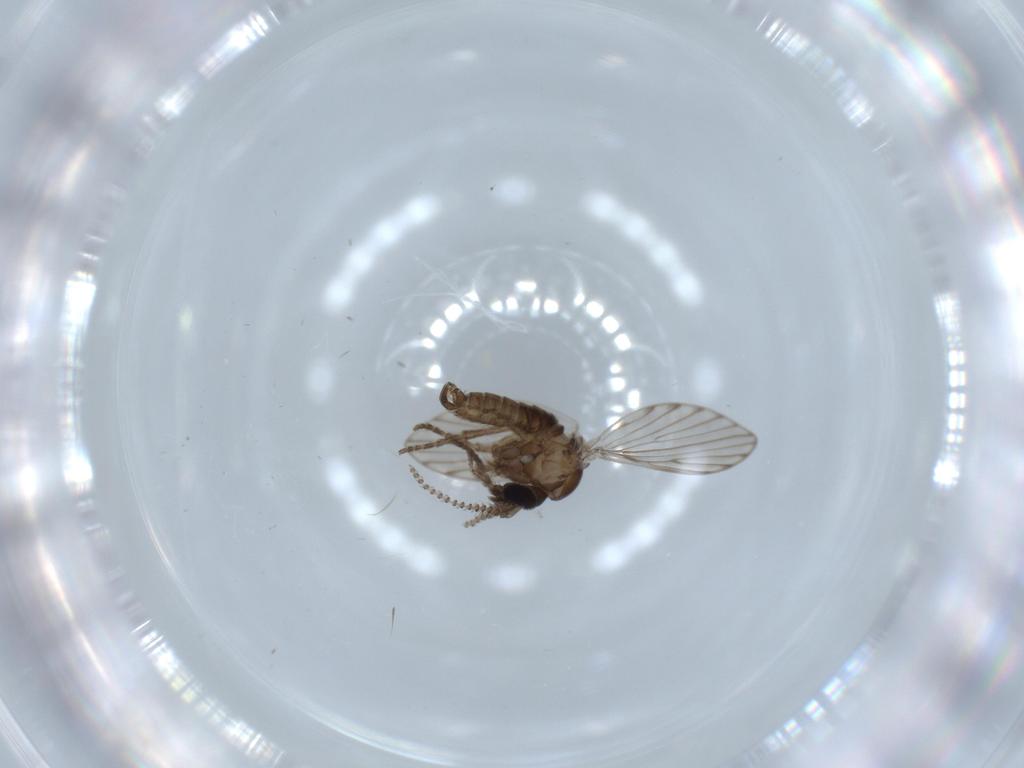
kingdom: Animalia
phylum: Arthropoda
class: Insecta
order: Diptera
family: Psychodidae
